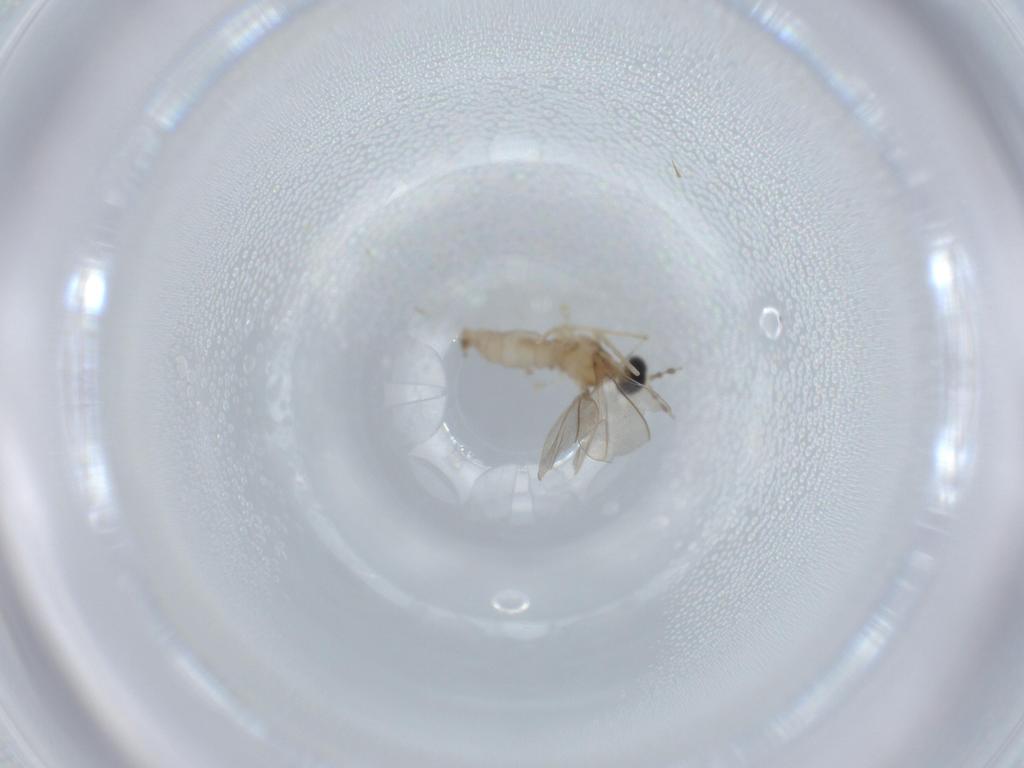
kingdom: Animalia
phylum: Arthropoda
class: Insecta
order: Diptera
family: Cecidomyiidae
